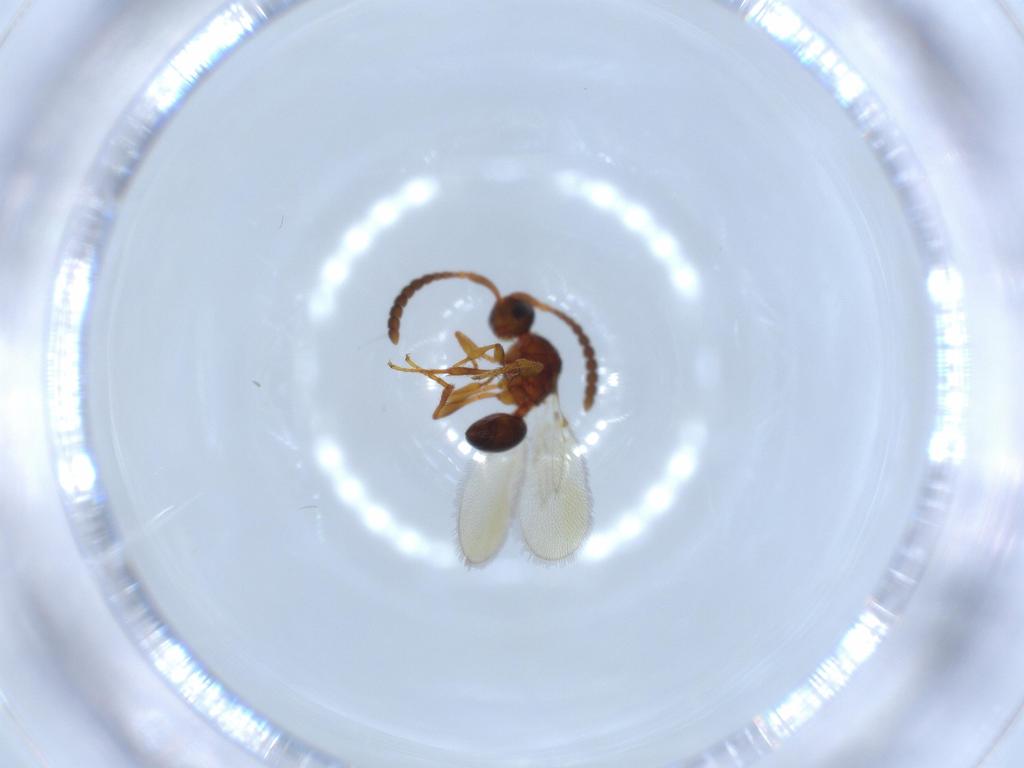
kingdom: Animalia
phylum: Arthropoda
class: Insecta
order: Hymenoptera
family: Diapriidae
